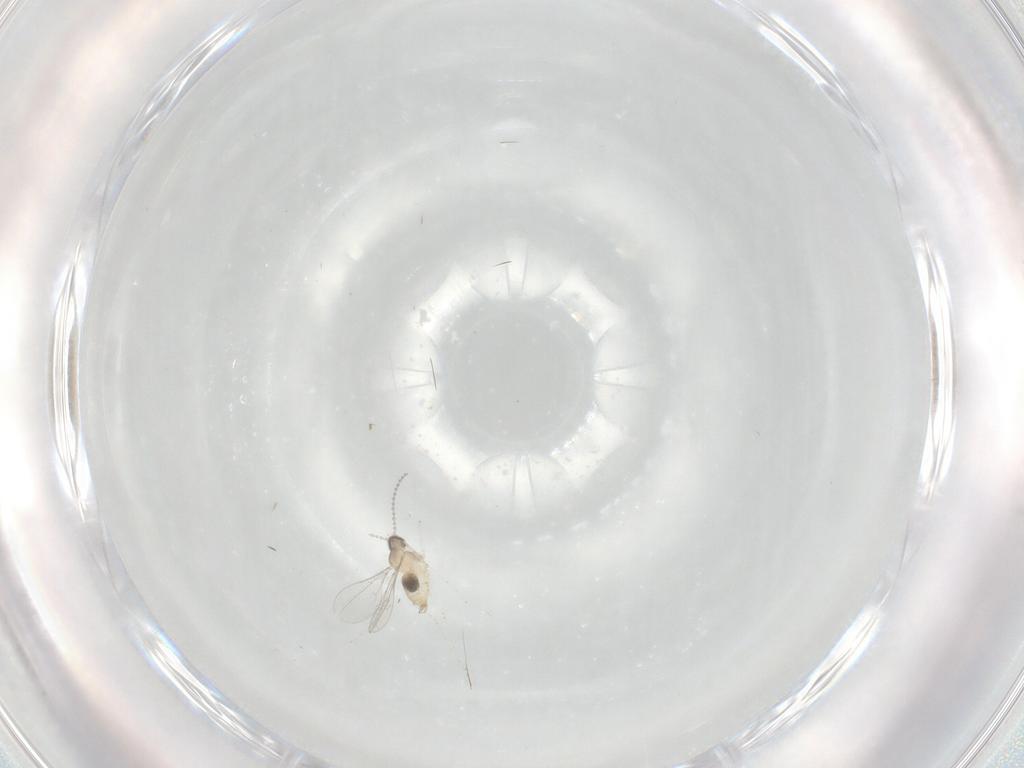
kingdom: Animalia
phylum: Arthropoda
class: Insecta
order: Diptera
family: Cecidomyiidae
